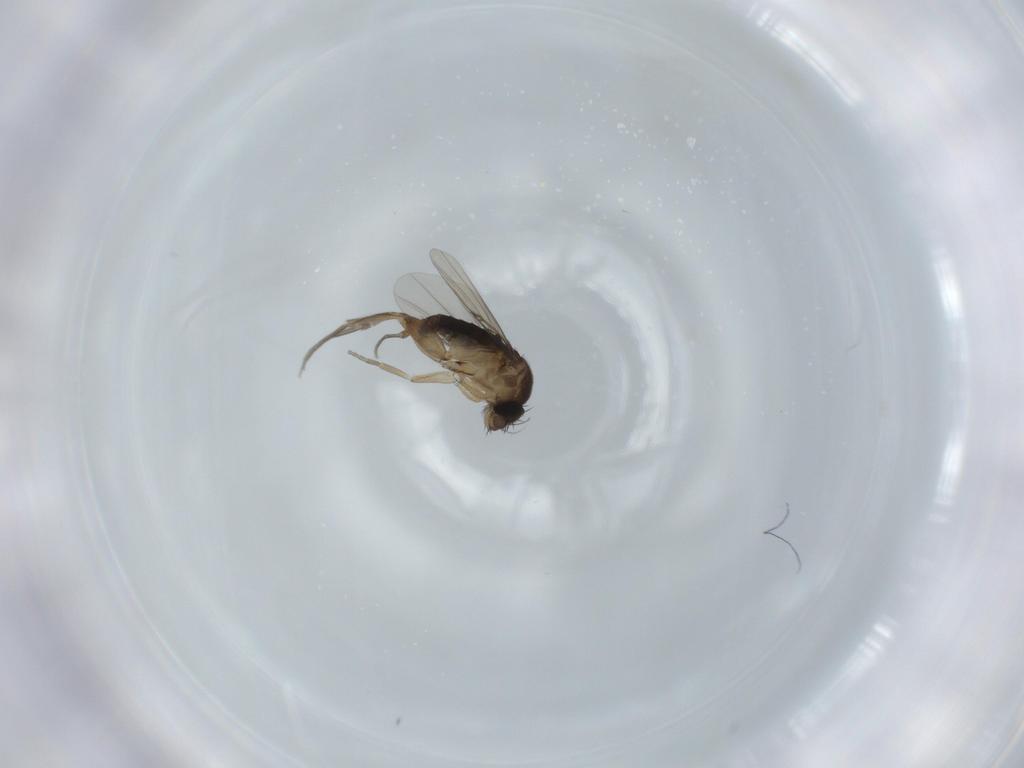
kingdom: Animalia
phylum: Arthropoda
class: Insecta
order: Diptera
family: Phoridae
